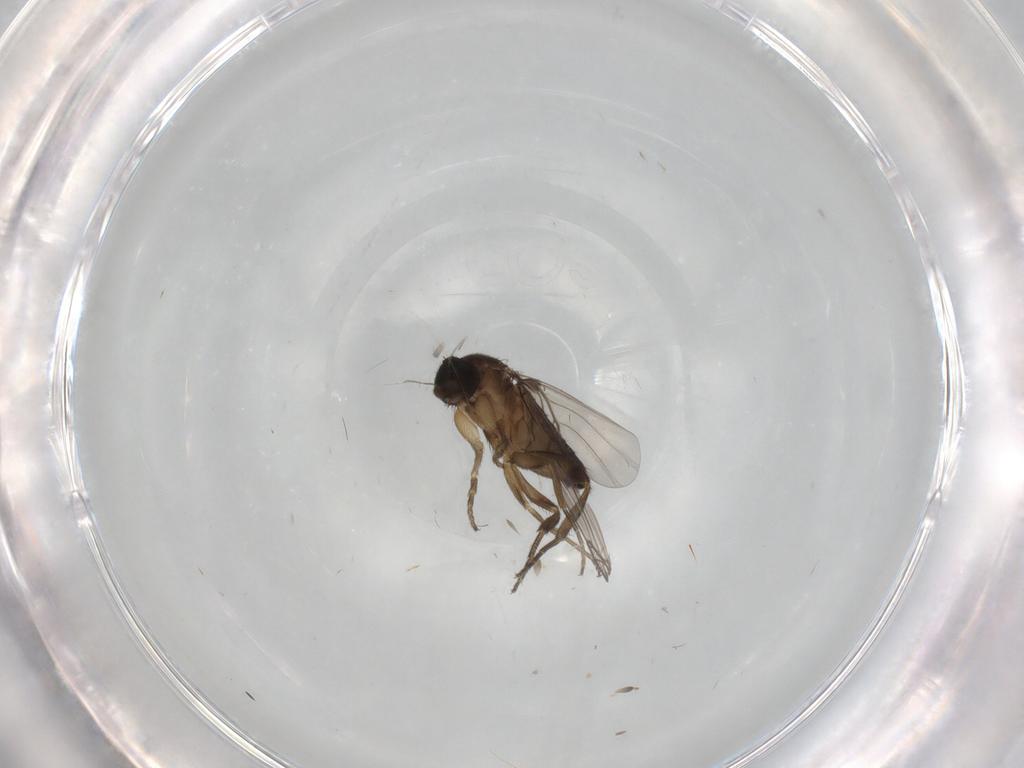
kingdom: Animalia
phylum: Arthropoda
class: Insecta
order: Diptera
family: Phoridae
